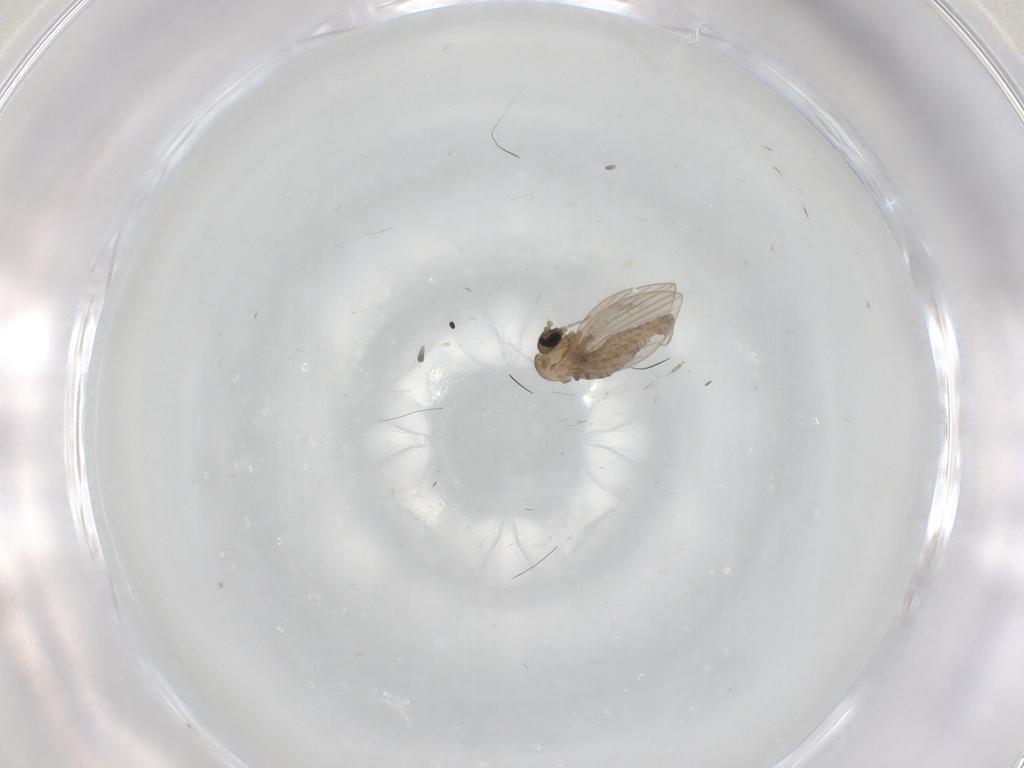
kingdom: Animalia
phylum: Arthropoda
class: Insecta
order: Diptera
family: Psychodidae
